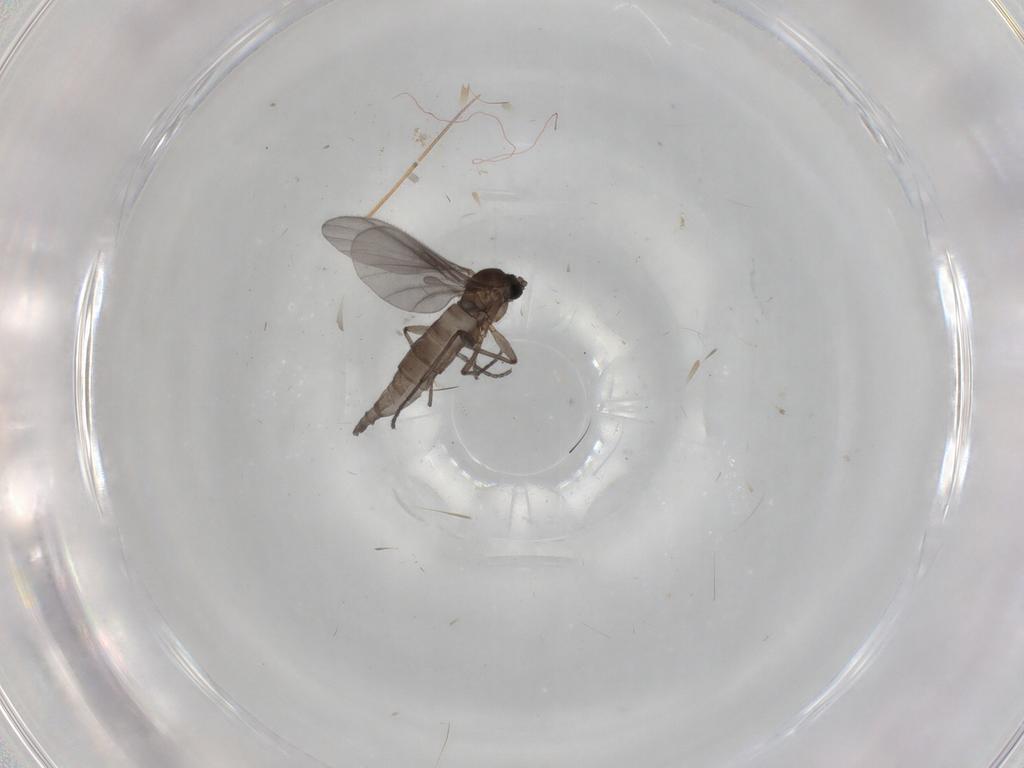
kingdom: Animalia
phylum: Arthropoda
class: Insecta
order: Diptera
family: Sciaridae
